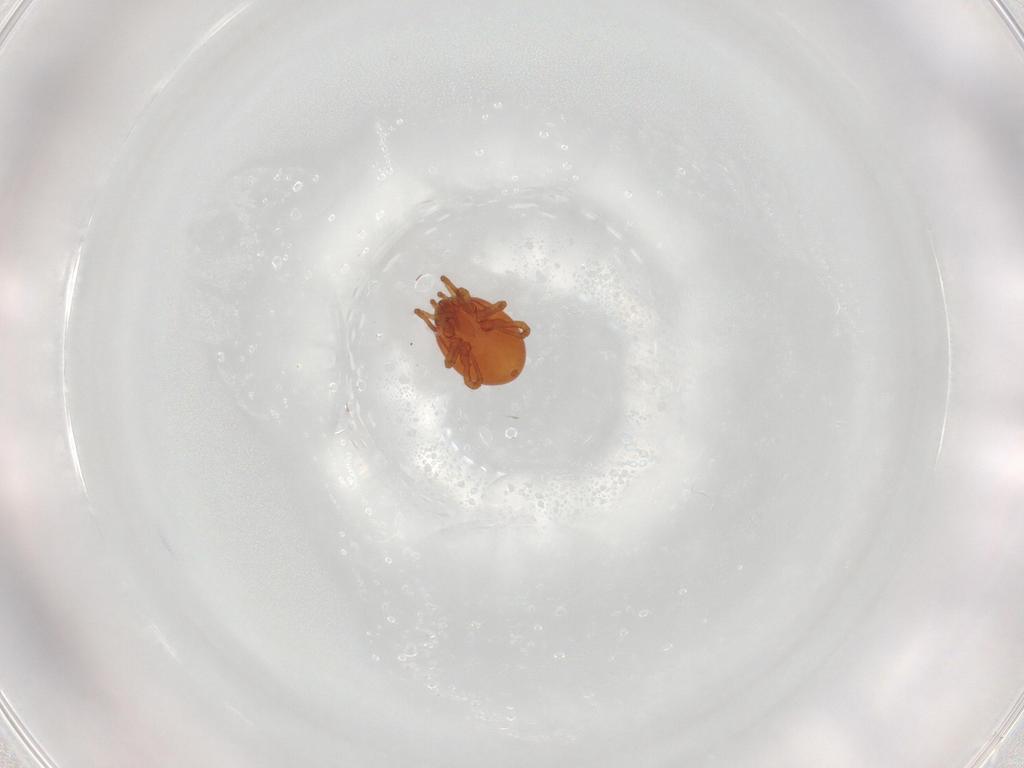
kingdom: Animalia
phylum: Arthropoda
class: Arachnida
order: Mesostigmata
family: Parasitidae
